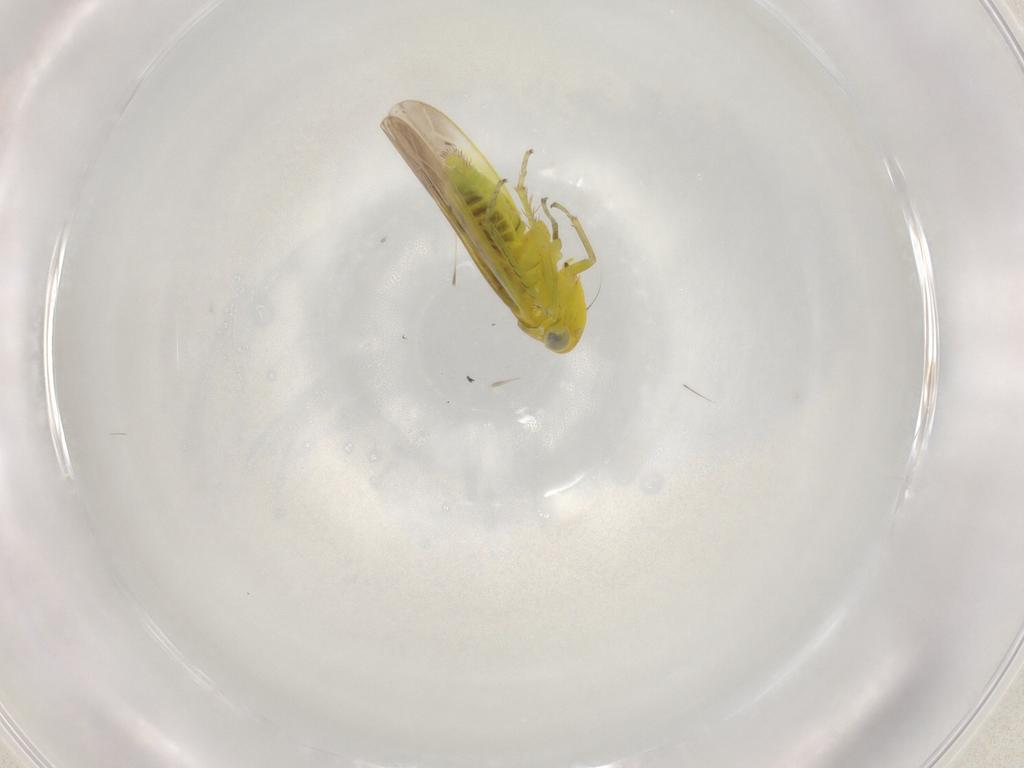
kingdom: Animalia
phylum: Arthropoda
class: Insecta
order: Hemiptera
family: Cicadellidae
